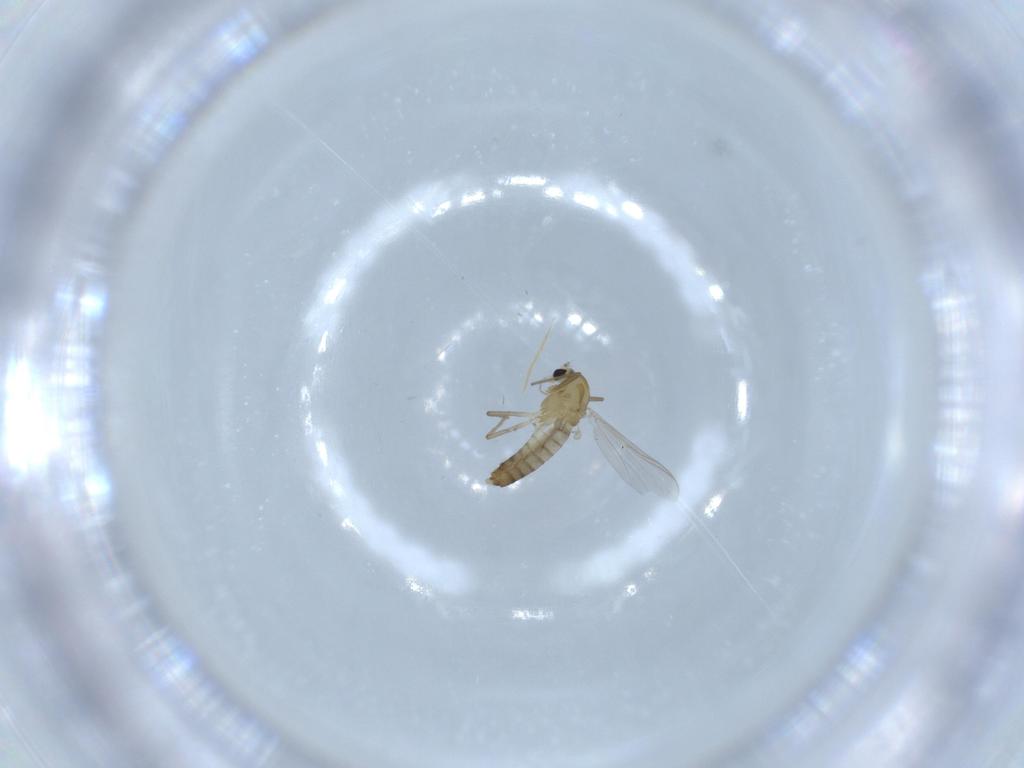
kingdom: Animalia
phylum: Arthropoda
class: Insecta
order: Diptera
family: Chironomidae
